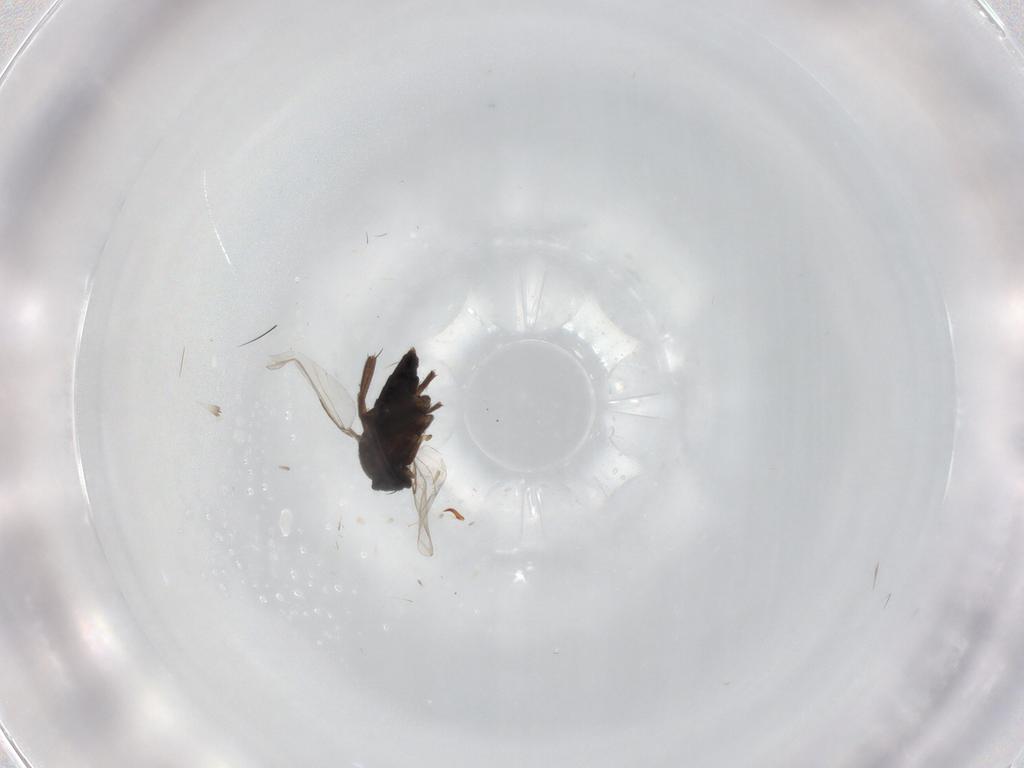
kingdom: Animalia
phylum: Arthropoda
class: Insecta
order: Diptera
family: Phoridae
